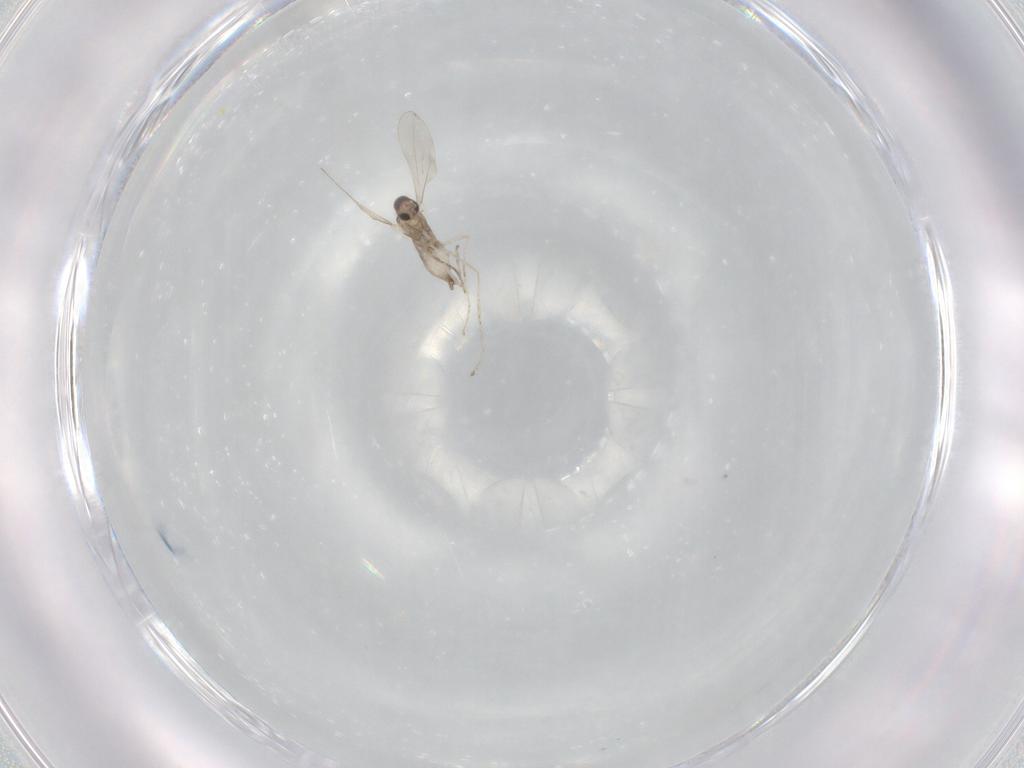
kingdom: Animalia
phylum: Arthropoda
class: Insecta
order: Diptera
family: Cecidomyiidae
